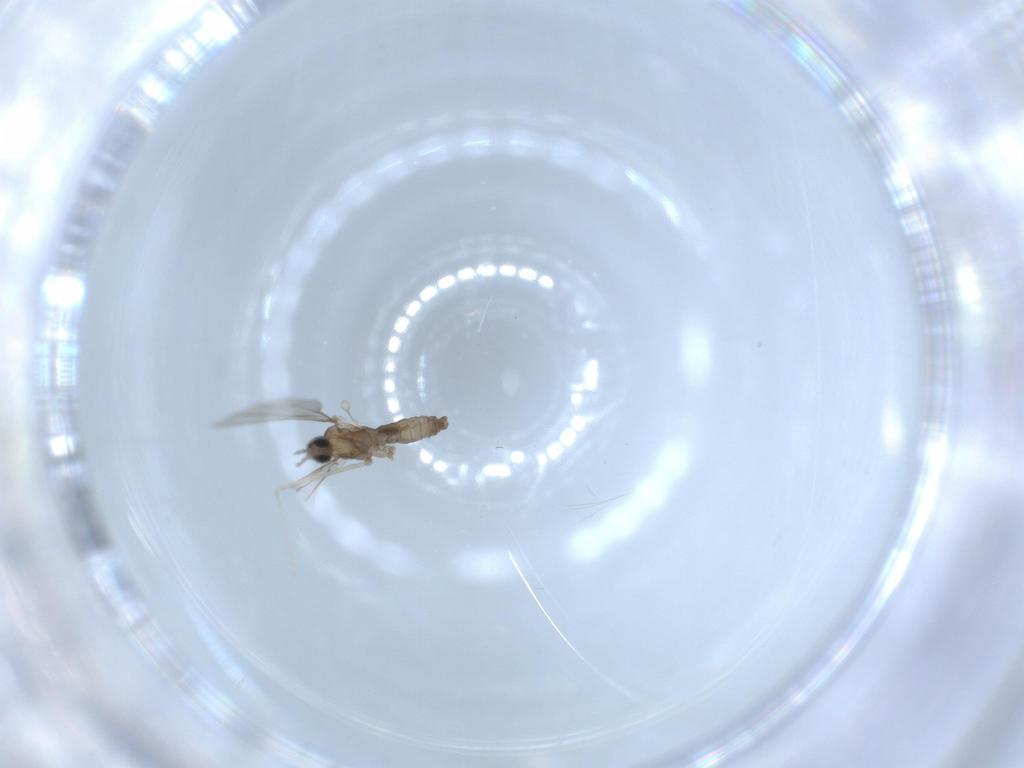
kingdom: Animalia
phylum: Arthropoda
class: Insecta
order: Diptera
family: Cecidomyiidae
